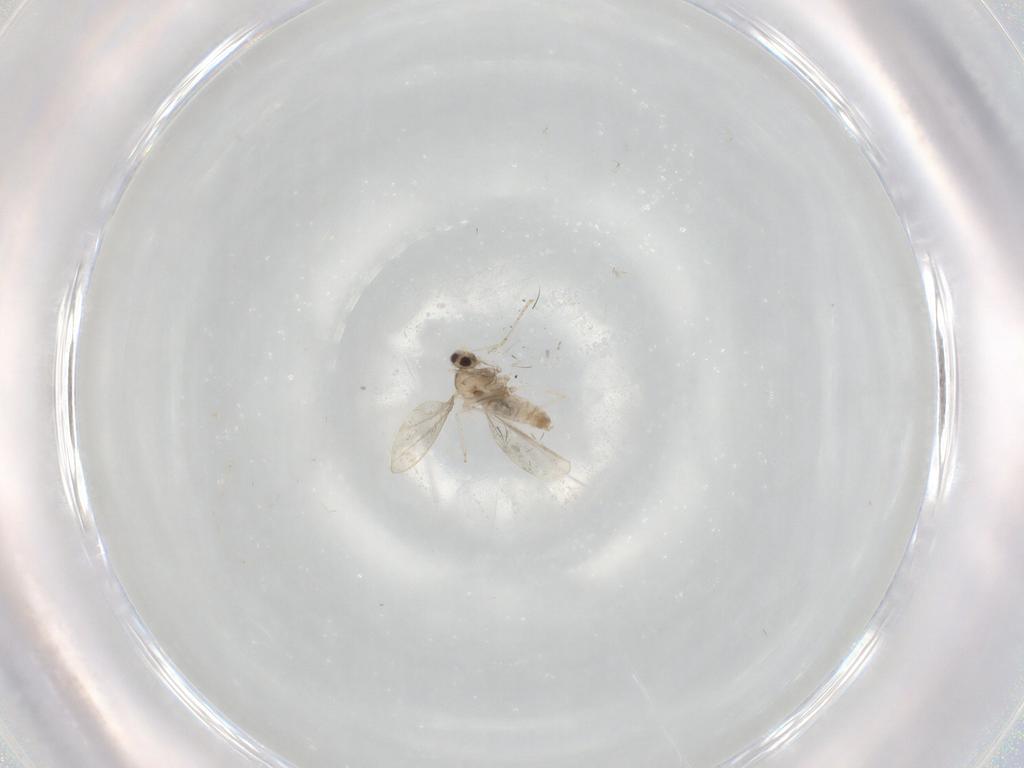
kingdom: Animalia
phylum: Arthropoda
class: Insecta
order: Diptera
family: Cecidomyiidae
